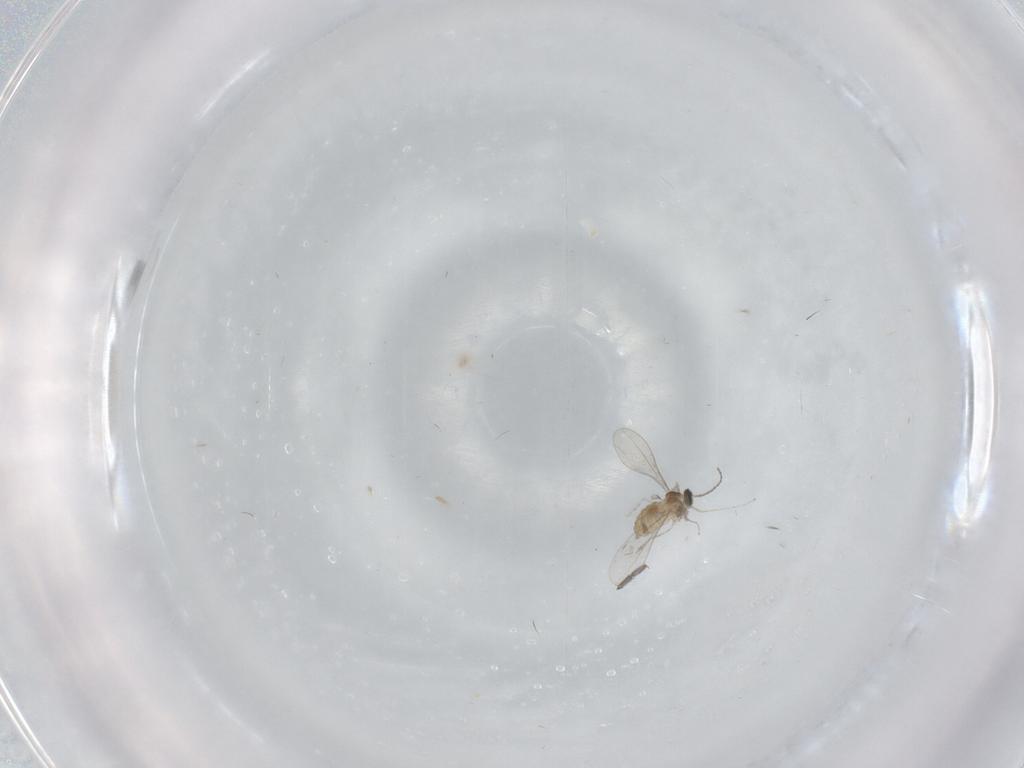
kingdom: Animalia
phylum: Arthropoda
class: Insecta
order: Diptera
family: Cecidomyiidae
